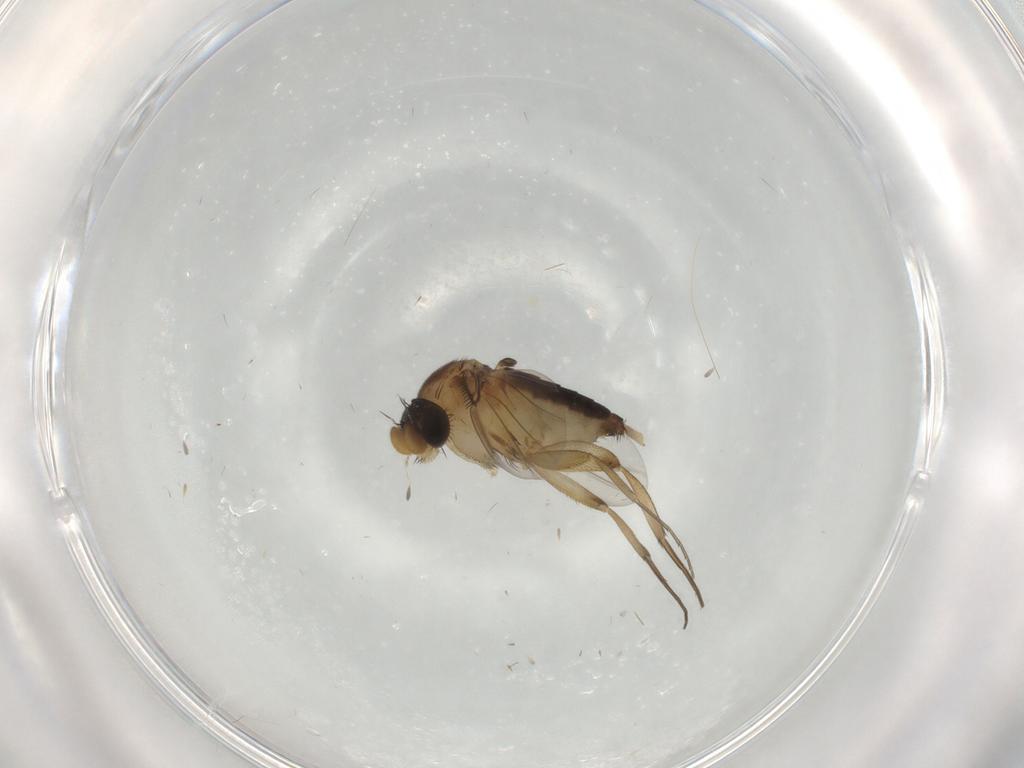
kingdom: Animalia
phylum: Arthropoda
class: Insecta
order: Diptera
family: Phoridae
